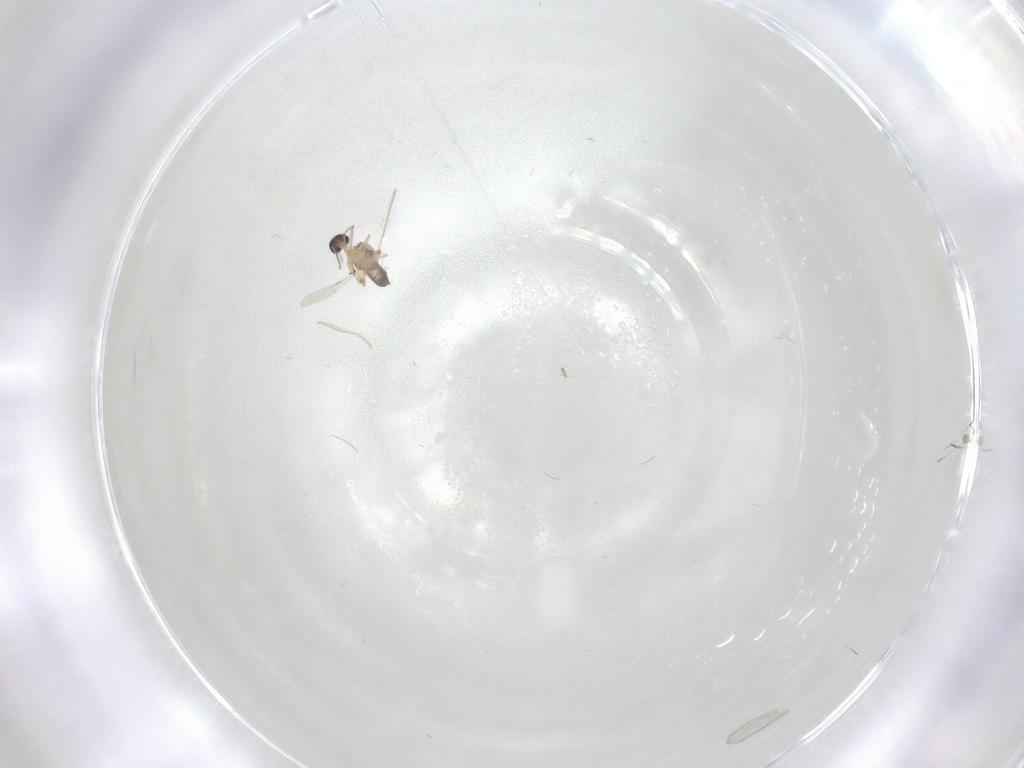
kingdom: Animalia
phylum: Arthropoda
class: Insecta
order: Diptera
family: Ceratopogonidae
